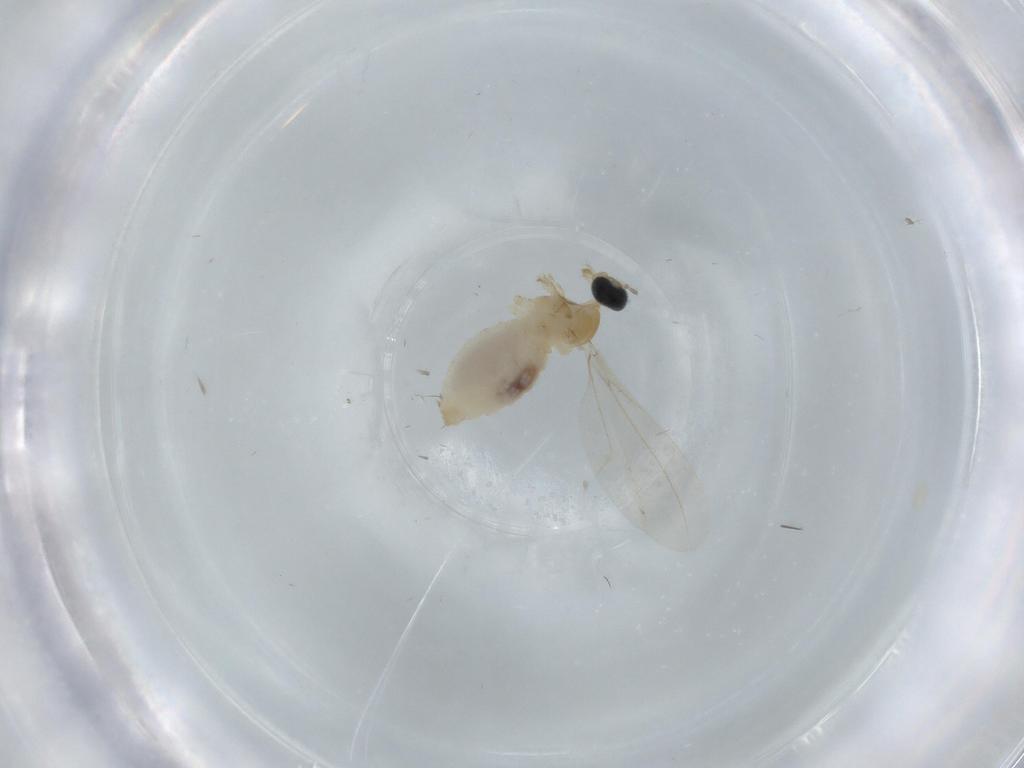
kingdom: Animalia
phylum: Arthropoda
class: Insecta
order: Diptera
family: Cecidomyiidae
